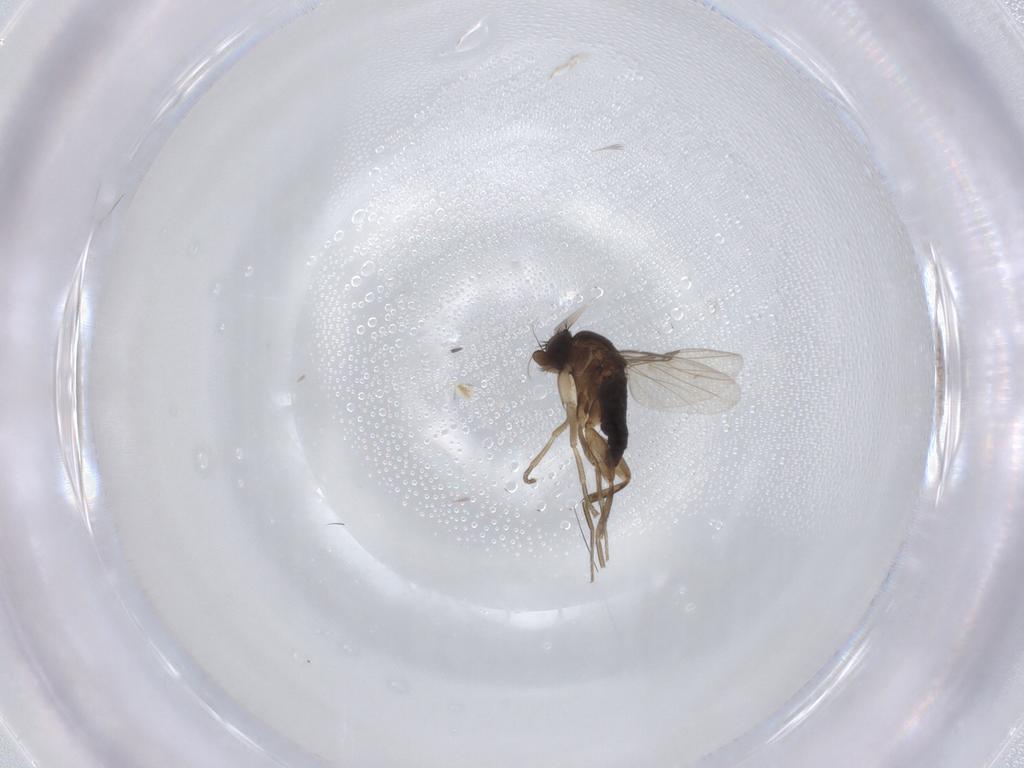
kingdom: Animalia
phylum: Arthropoda
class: Insecta
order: Diptera
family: Phoridae
